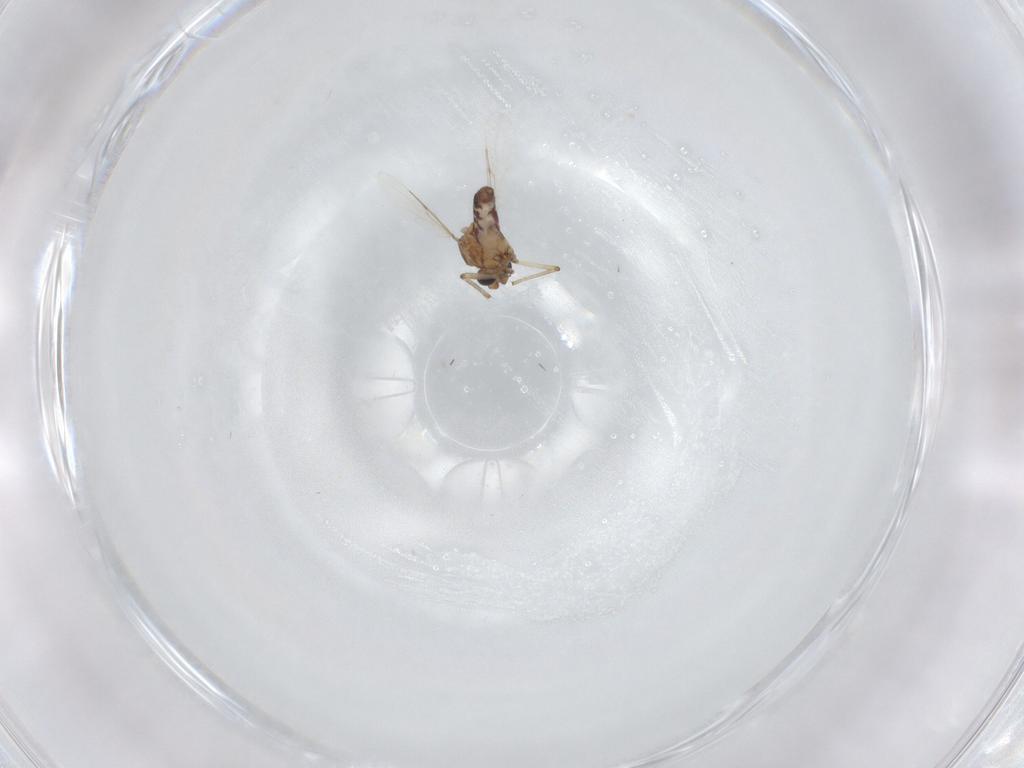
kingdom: Animalia
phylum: Arthropoda
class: Insecta
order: Diptera
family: Ceratopogonidae
